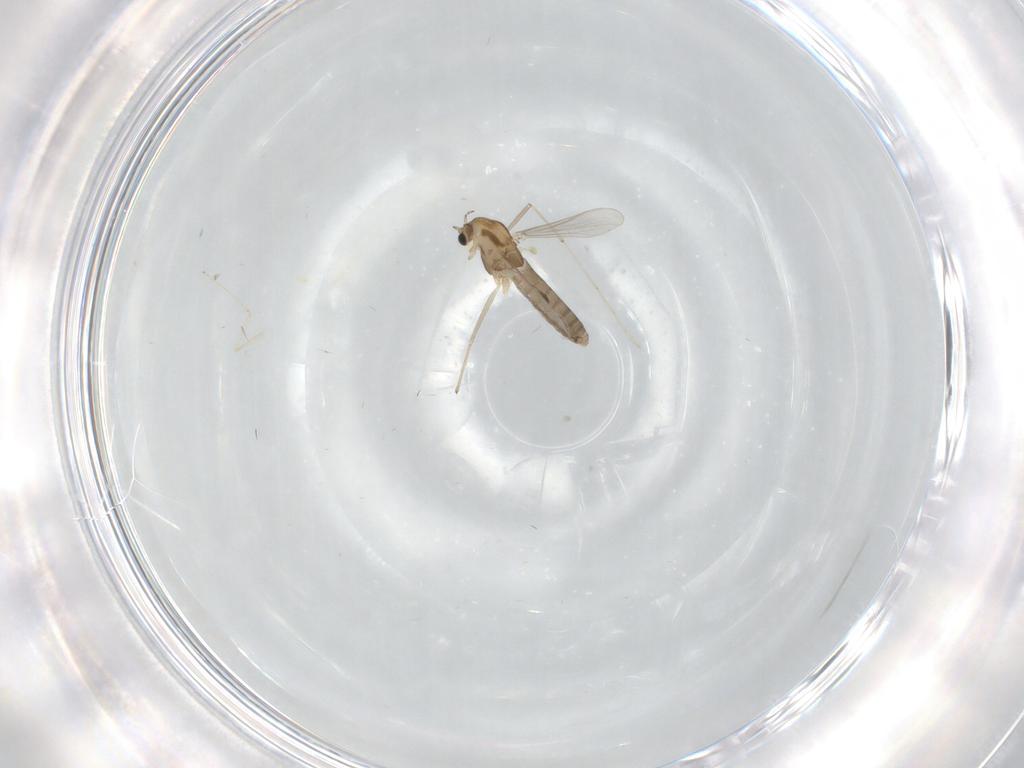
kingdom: Animalia
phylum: Arthropoda
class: Insecta
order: Diptera
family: Chironomidae
